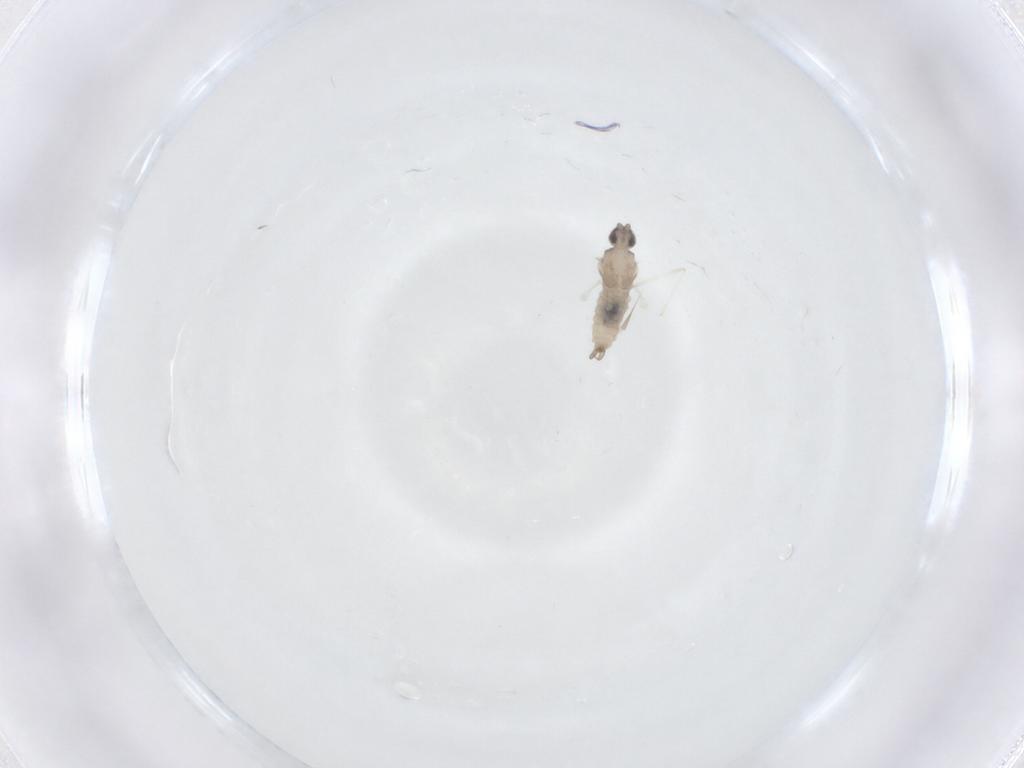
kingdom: Animalia
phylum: Arthropoda
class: Insecta
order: Diptera
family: Cecidomyiidae
